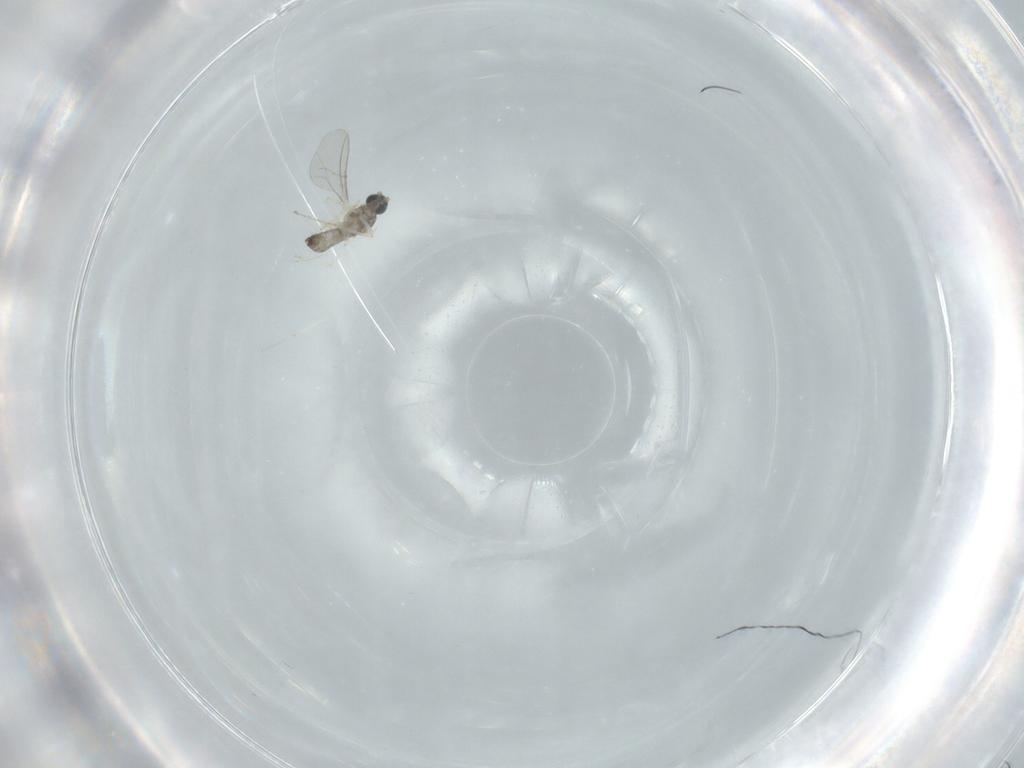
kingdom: Animalia
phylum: Arthropoda
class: Insecta
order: Diptera
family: Cecidomyiidae
